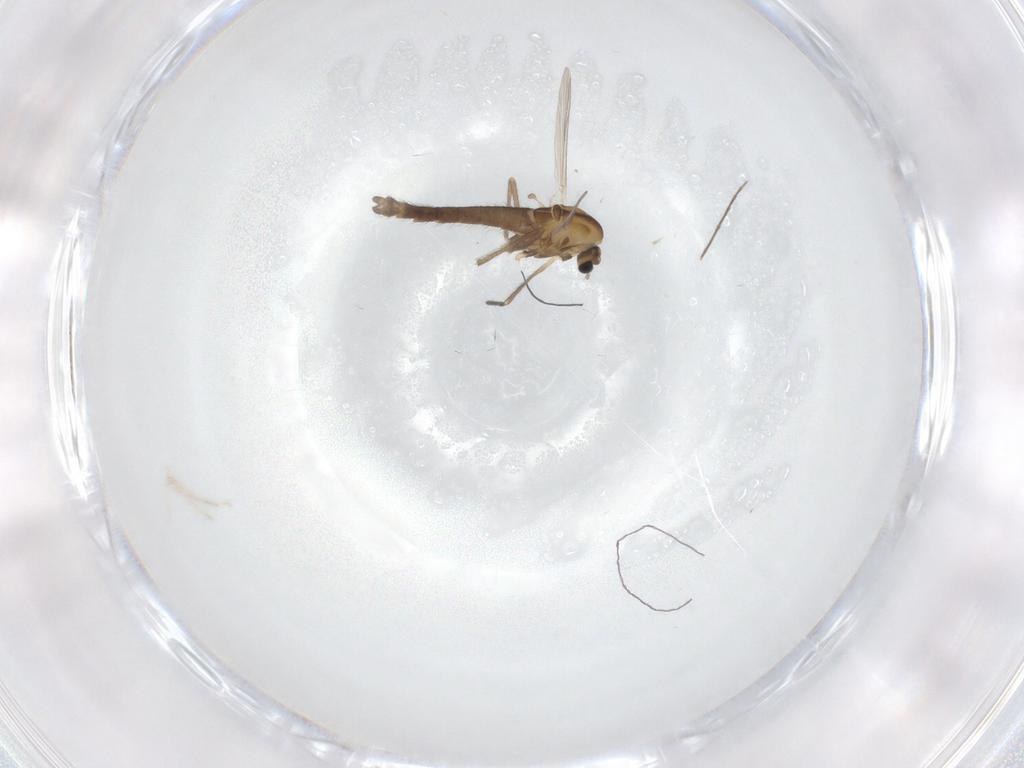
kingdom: Animalia
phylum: Arthropoda
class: Insecta
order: Diptera
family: Chironomidae
